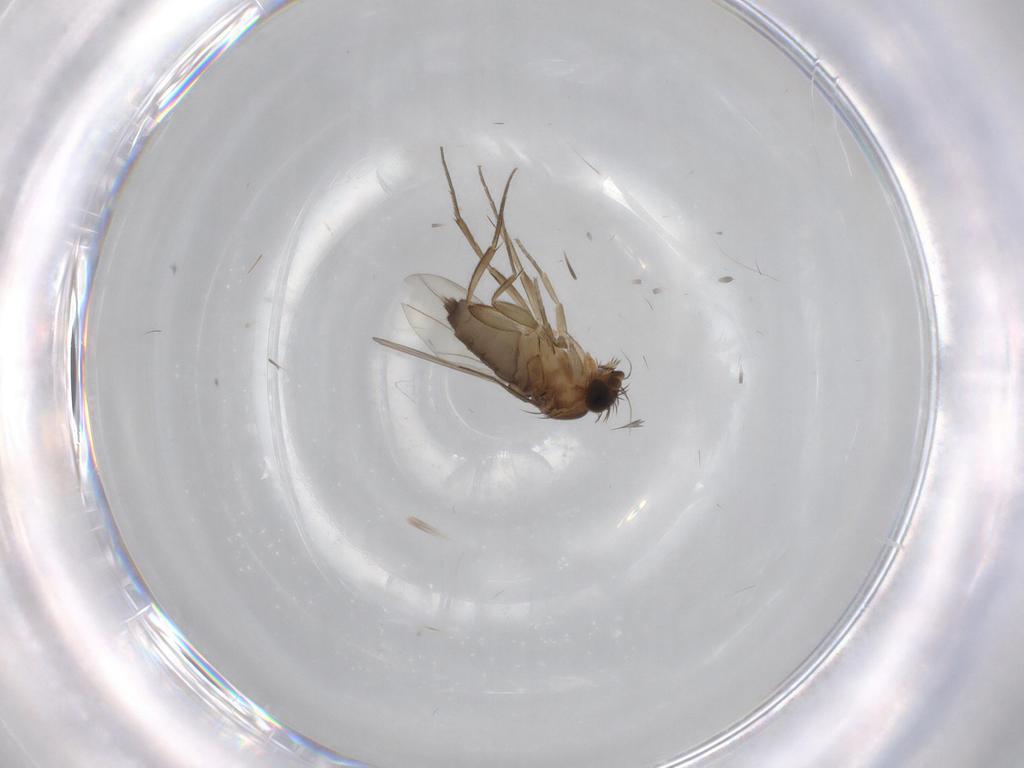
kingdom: Animalia
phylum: Arthropoda
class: Insecta
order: Diptera
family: Phoridae
